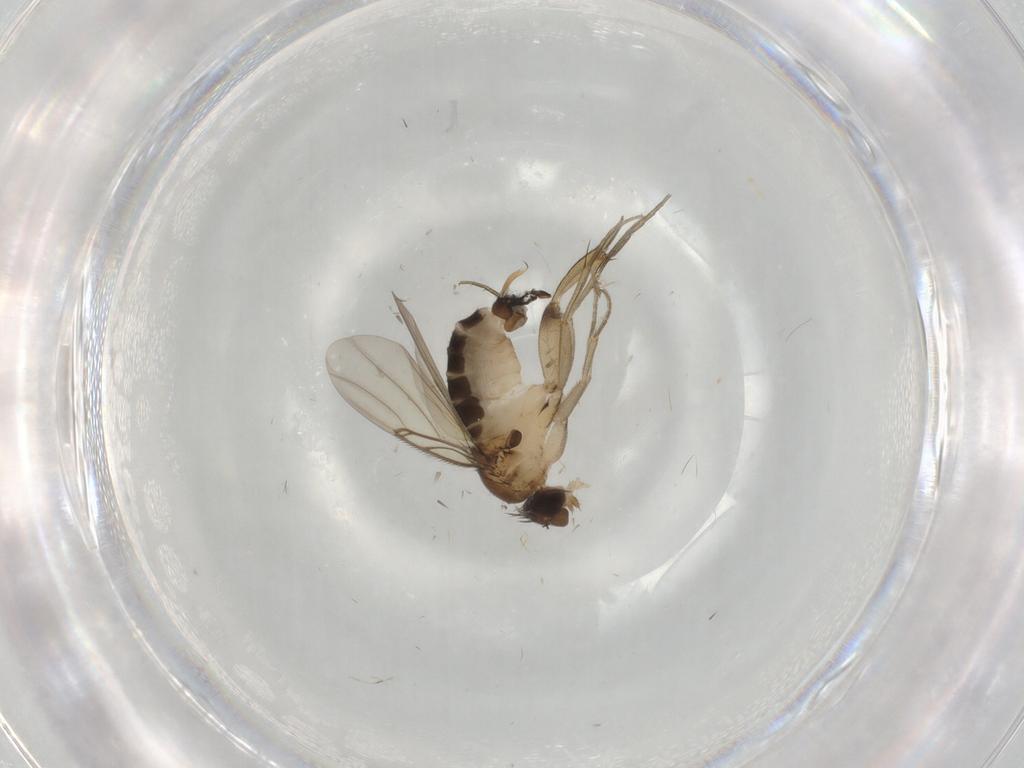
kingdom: Animalia
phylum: Arthropoda
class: Insecta
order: Diptera
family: Phoridae
